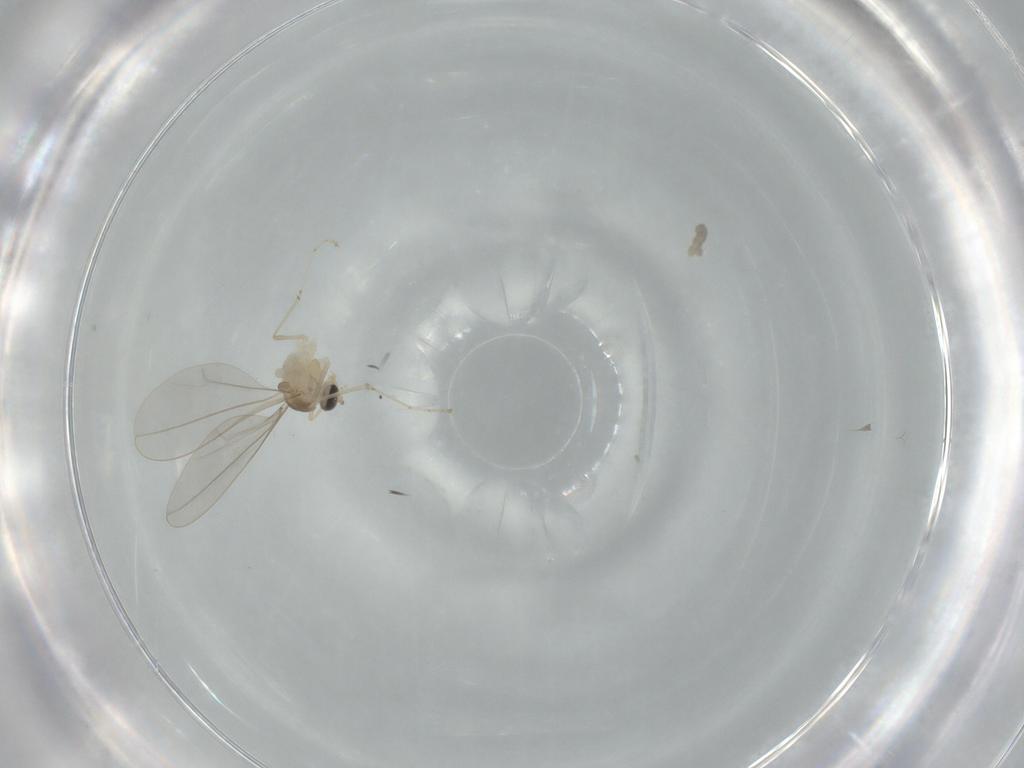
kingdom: Animalia
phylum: Arthropoda
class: Insecta
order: Diptera
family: Cecidomyiidae
